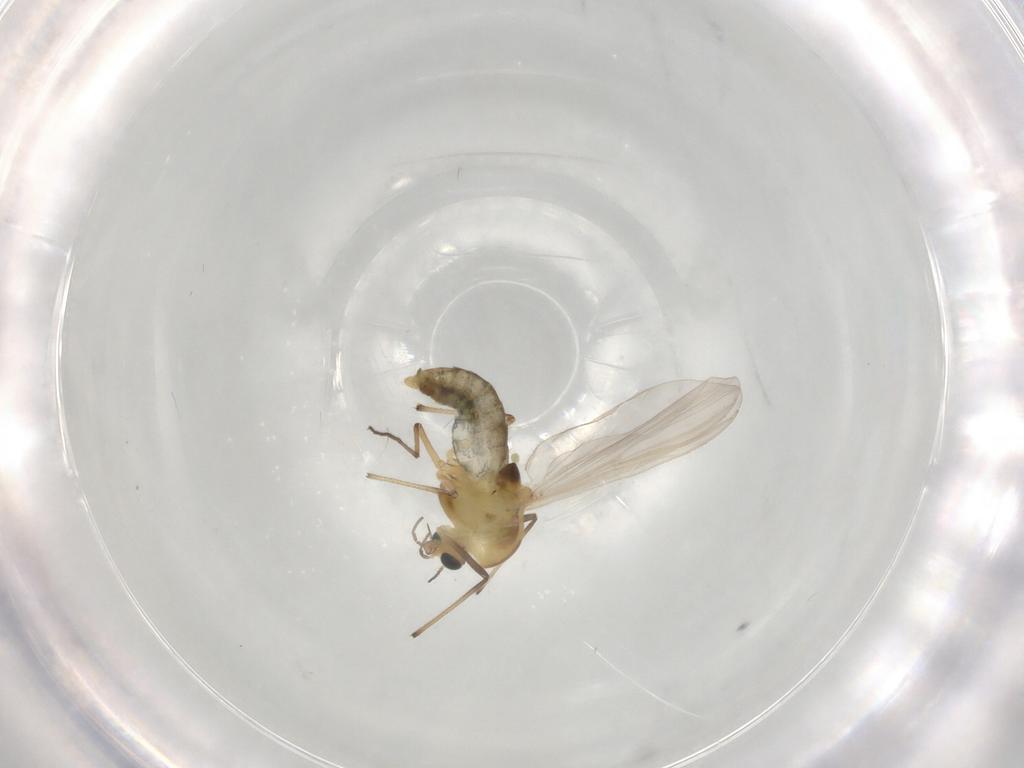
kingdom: Animalia
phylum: Arthropoda
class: Insecta
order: Diptera
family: Chironomidae
